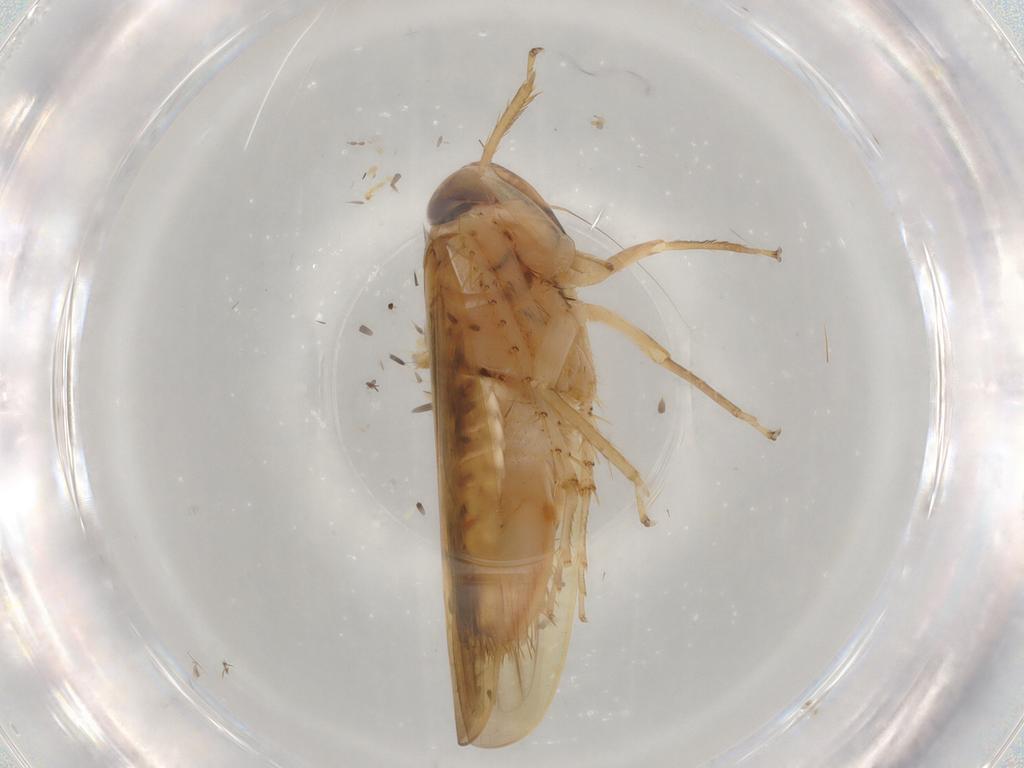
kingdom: Animalia
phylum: Arthropoda
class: Insecta
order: Hemiptera
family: Cicadellidae
